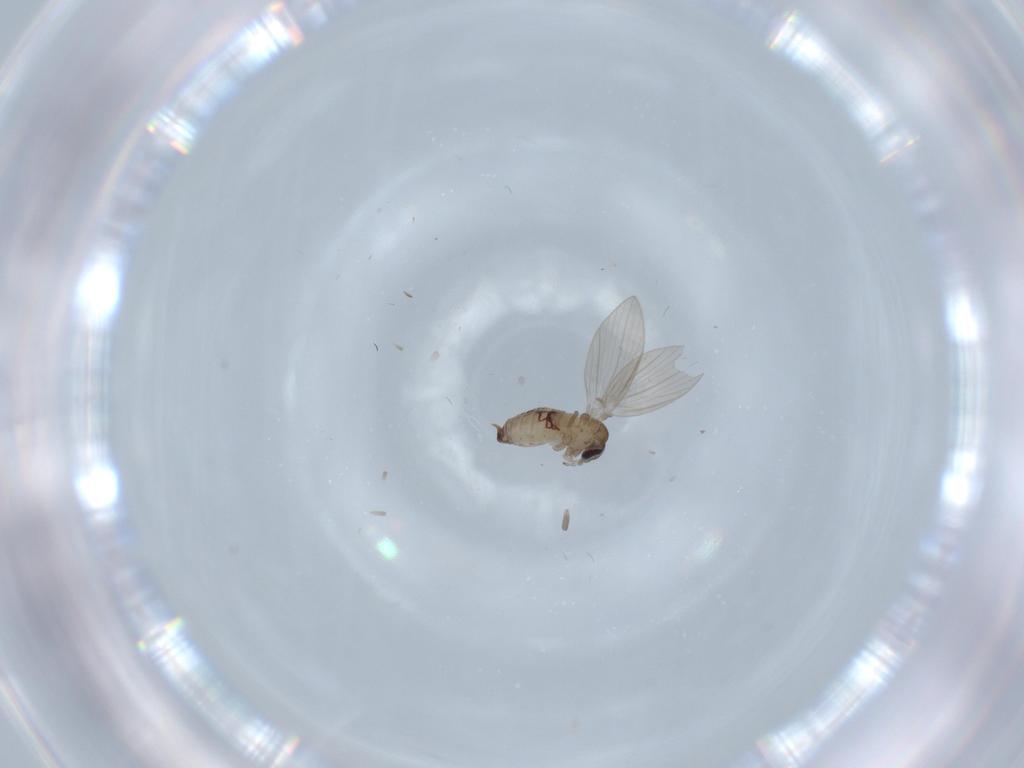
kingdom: Animalia
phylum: Arthropoda
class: Insecta
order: Diptera
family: Psychodidae
